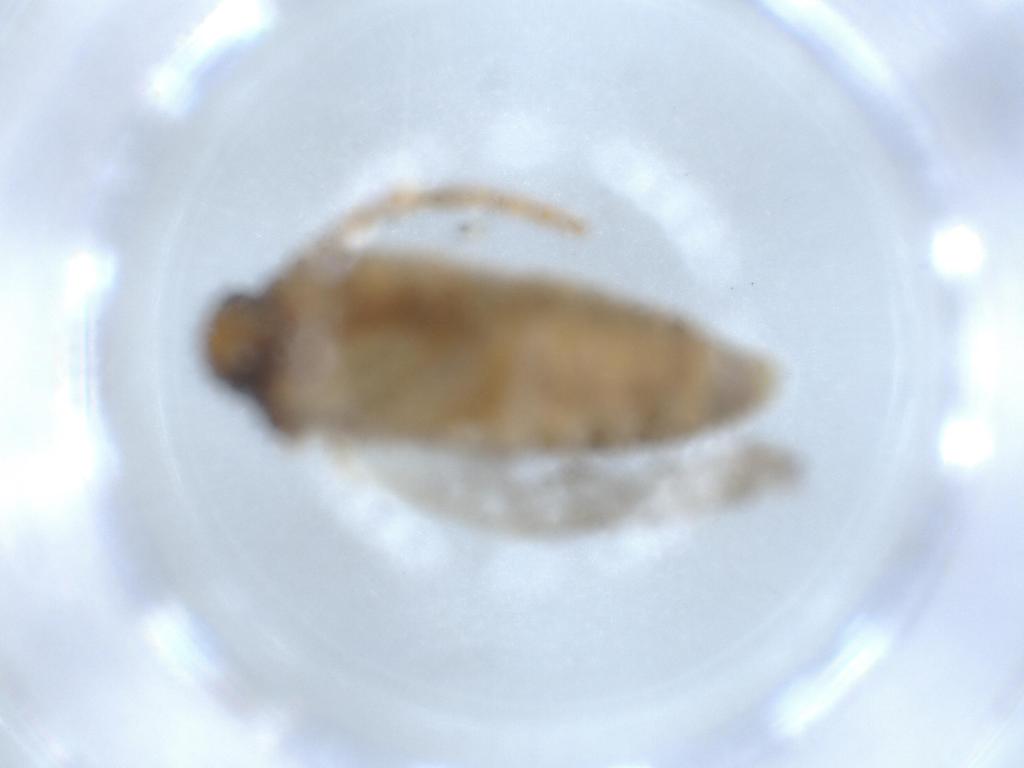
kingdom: Animalia
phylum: Arthropoda
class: Insecta
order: Lepidoptera
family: Gelechiidae
